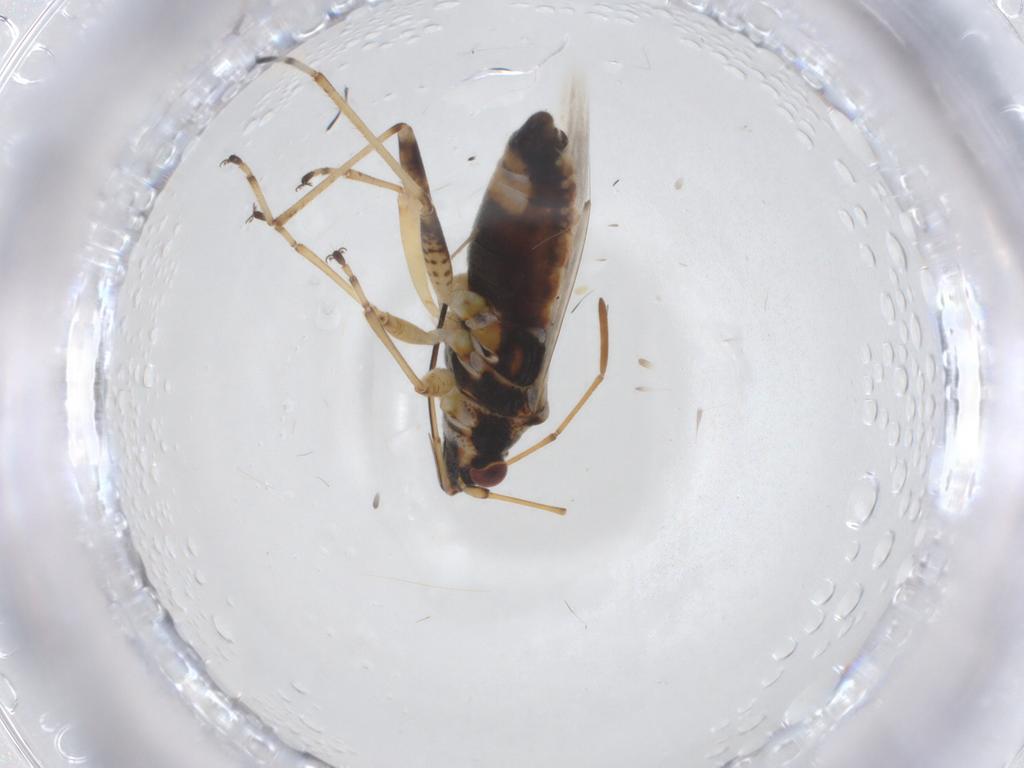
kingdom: Animalia
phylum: Arthropoda
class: Insecta
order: Hemiptera
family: Lygaeidae
